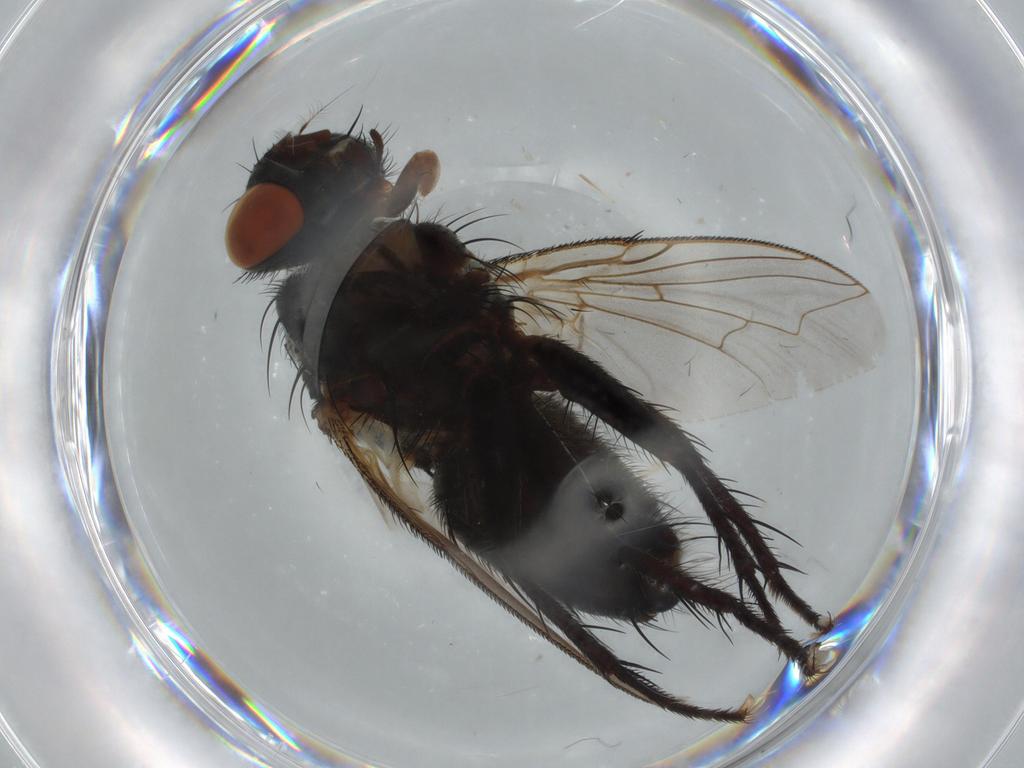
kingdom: Animalia
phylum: Arthropoda
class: Insecta
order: Diptera
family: Sarcophagidae
